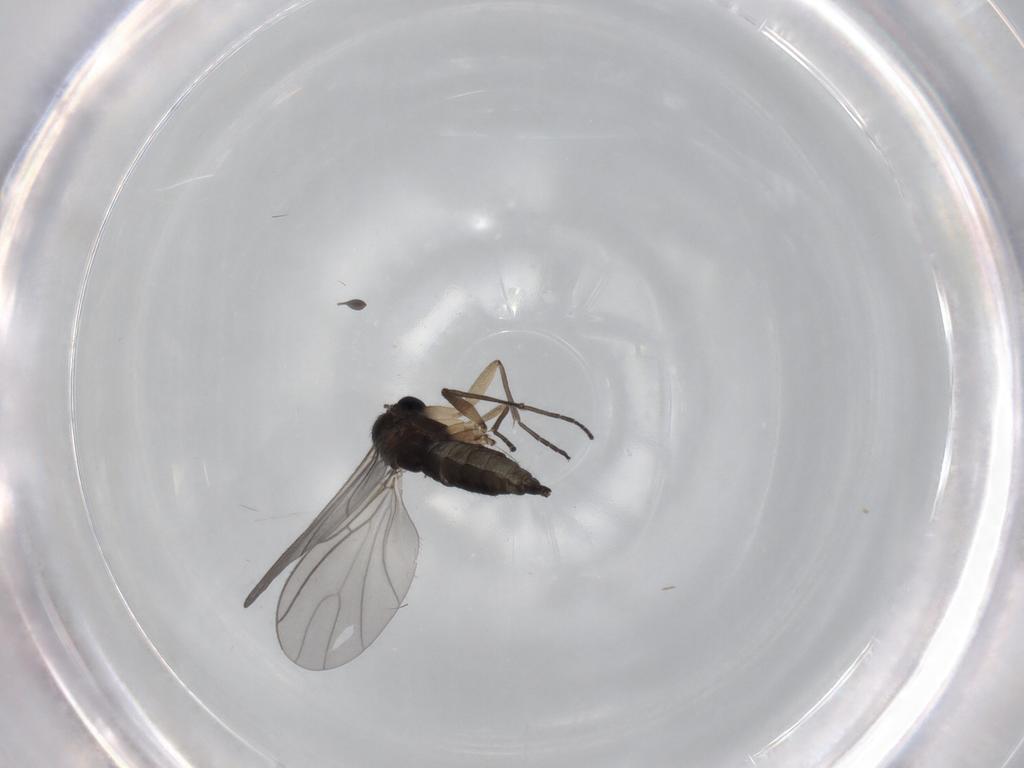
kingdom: Animalia
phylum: Arthropoda
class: Insecta
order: Diptera
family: Sciaridae
